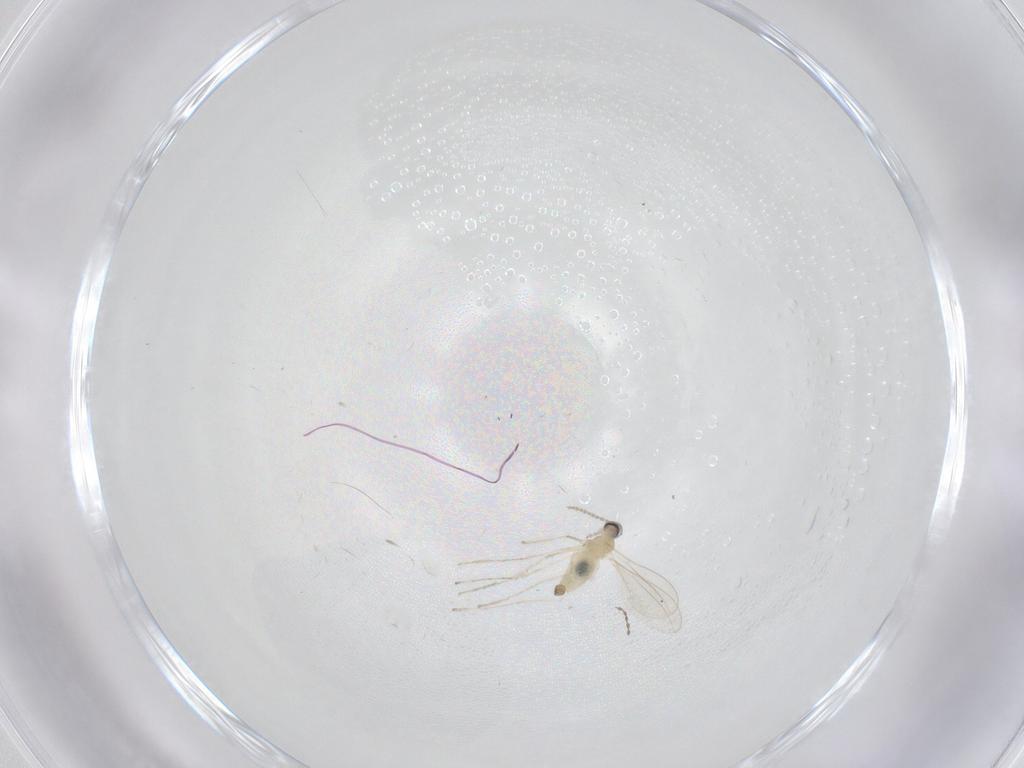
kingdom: Animalia
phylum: Arthropoda
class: Insecta
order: Diptera
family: Cecidomyiidae
